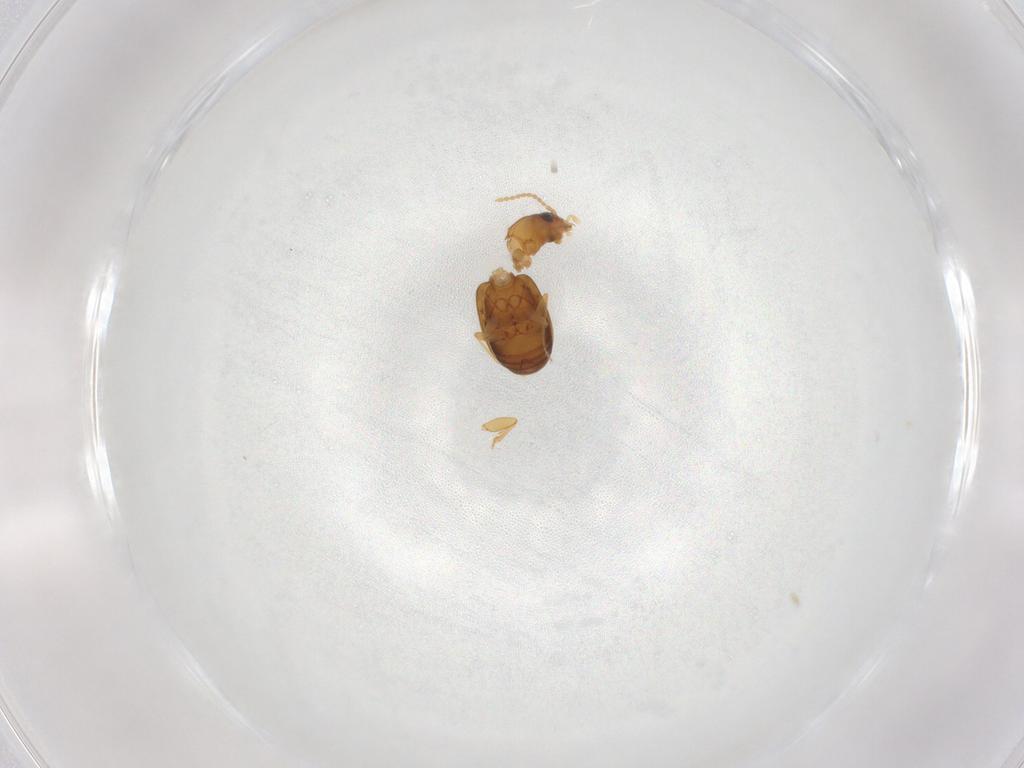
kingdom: Animalia
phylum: Arthropoda
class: Insecta
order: Coleoptera
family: Carabidae
